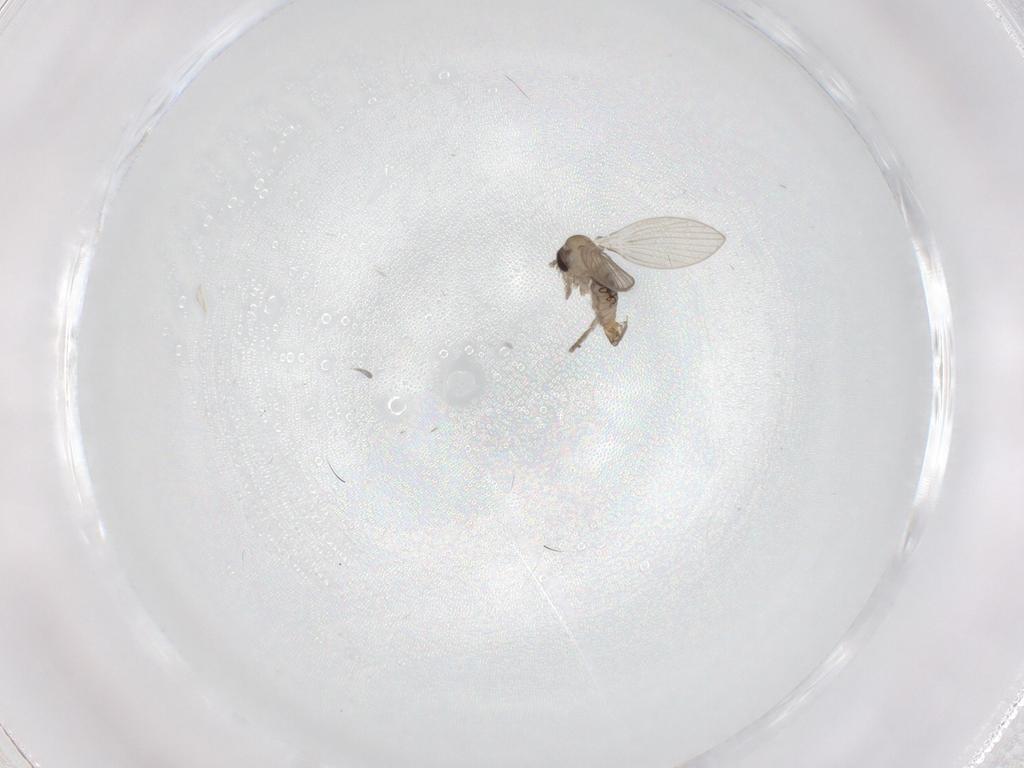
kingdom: Animalia
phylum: Arthropoda
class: Insecta
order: Diptera
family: Psychodidae
